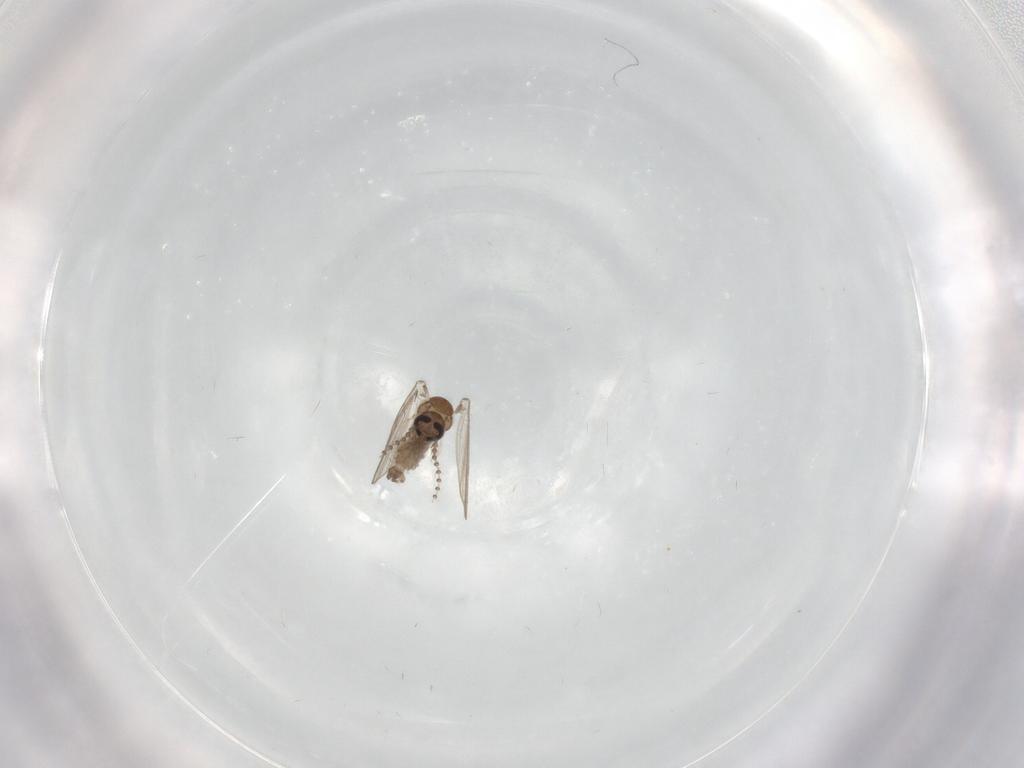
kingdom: Animalia
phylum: Arthropoda
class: Insecta
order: Diptera
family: Psychodidae
